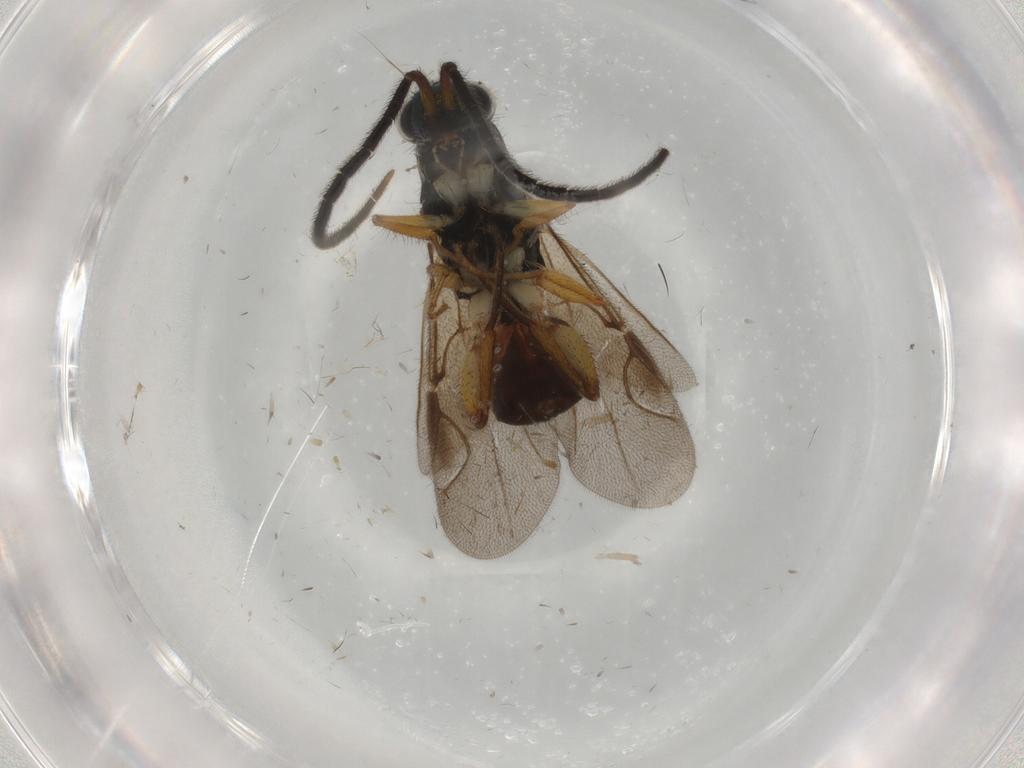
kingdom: Animalia
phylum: Arthropoda
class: Insecta
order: Hymenoptera
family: Chrysididae
